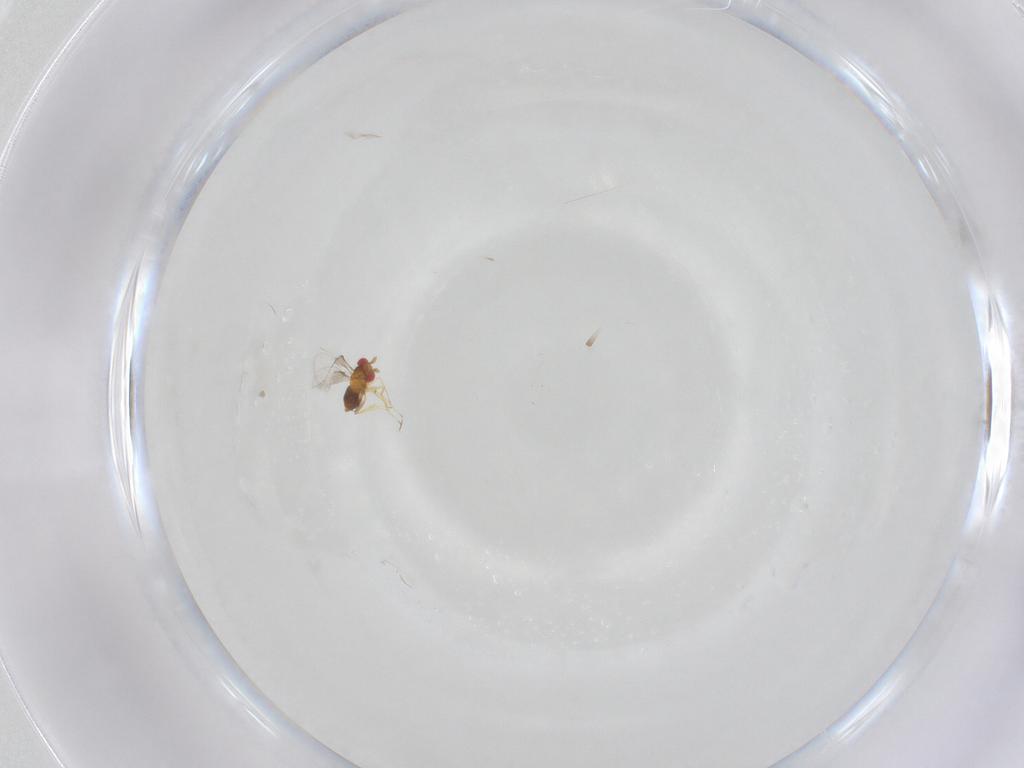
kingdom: Animalia
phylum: Arthropoda
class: Insecta
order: Hymenoptera
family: Trichogrammatidae
